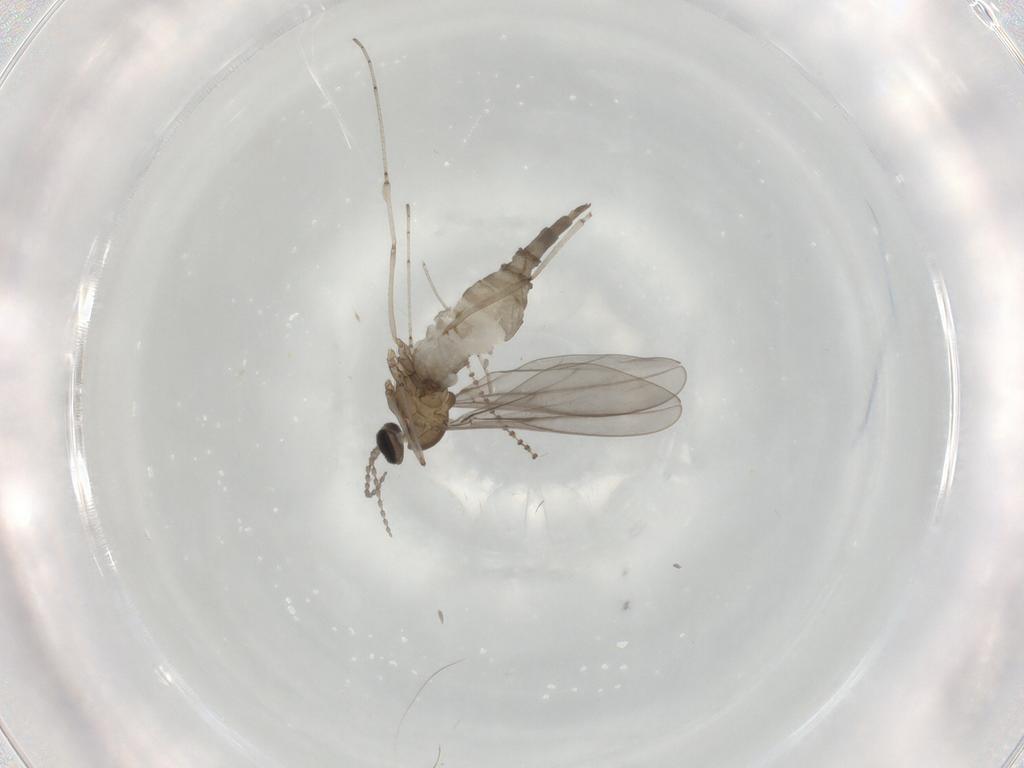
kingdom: Animalia
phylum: Arthropoda
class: Insecta
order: Diptera
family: Cecidomyiidae
